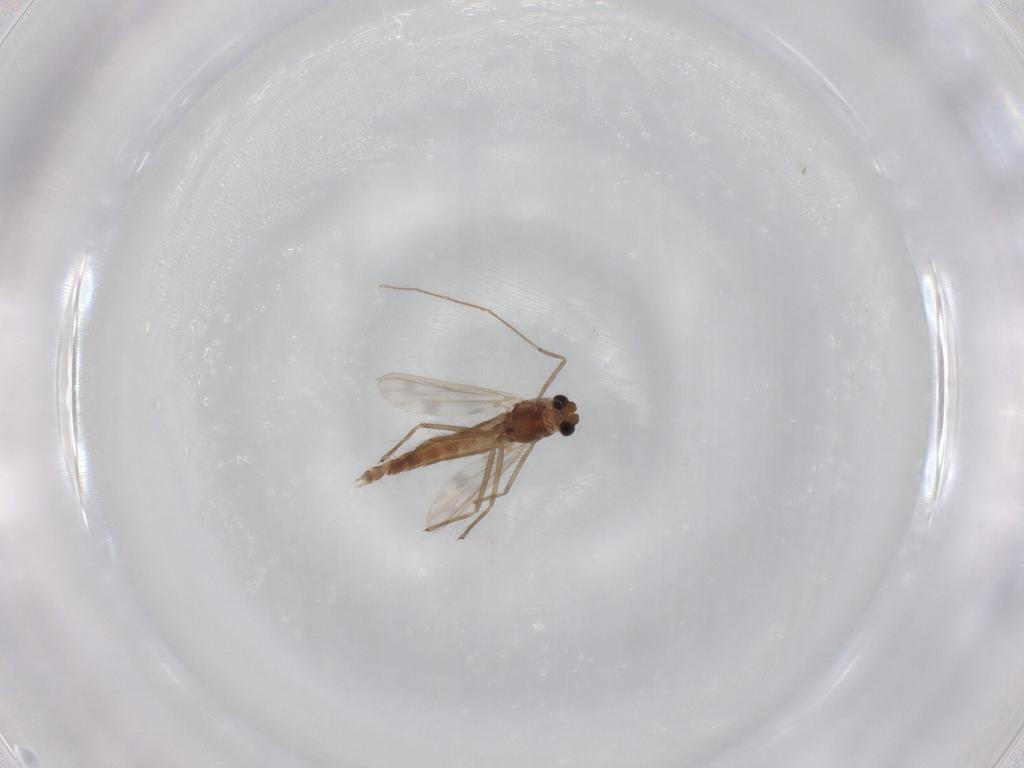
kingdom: Animalia
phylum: Arthropoda
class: Insecta
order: Diptera
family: Chironomidae
